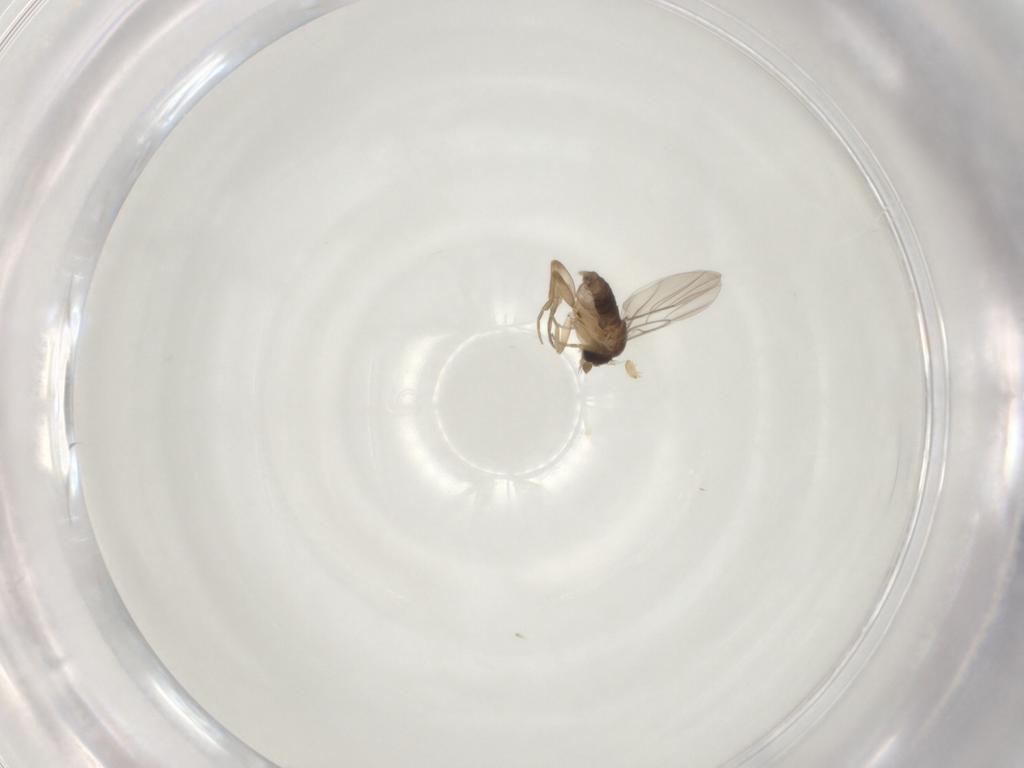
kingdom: Animalia
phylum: Arthropoda
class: Insecta
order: Diptera
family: Phoridae
